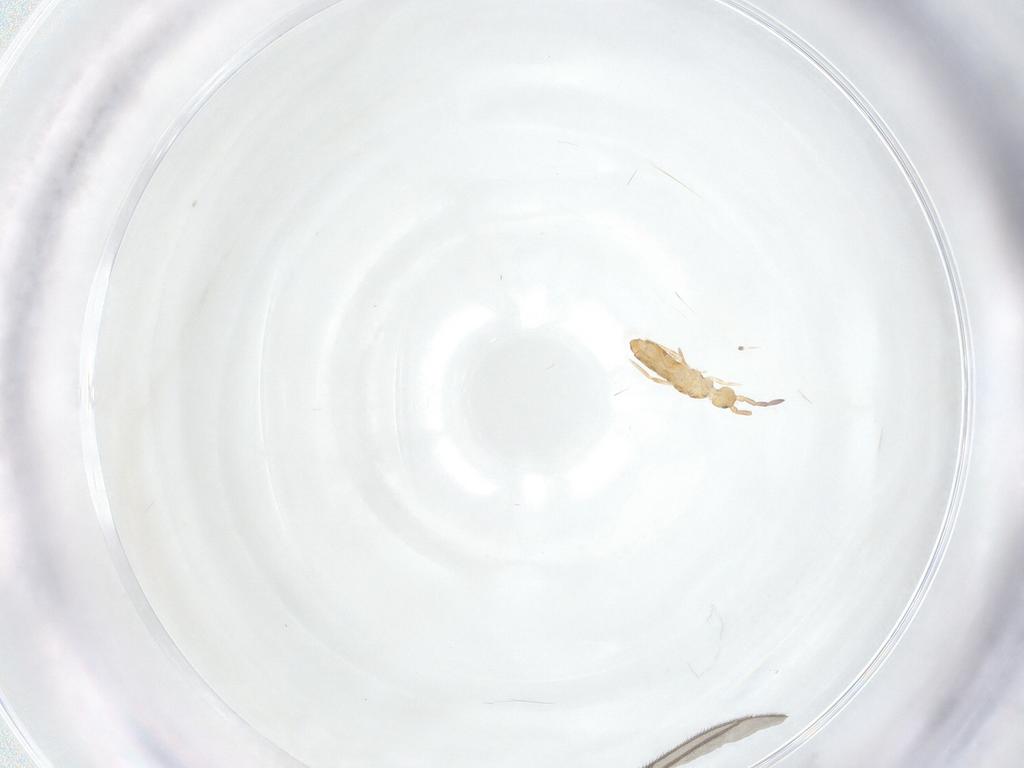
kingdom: Animalia
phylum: Arthropoda
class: Collembola
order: Entomobryomorpha
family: Entomobryidae
